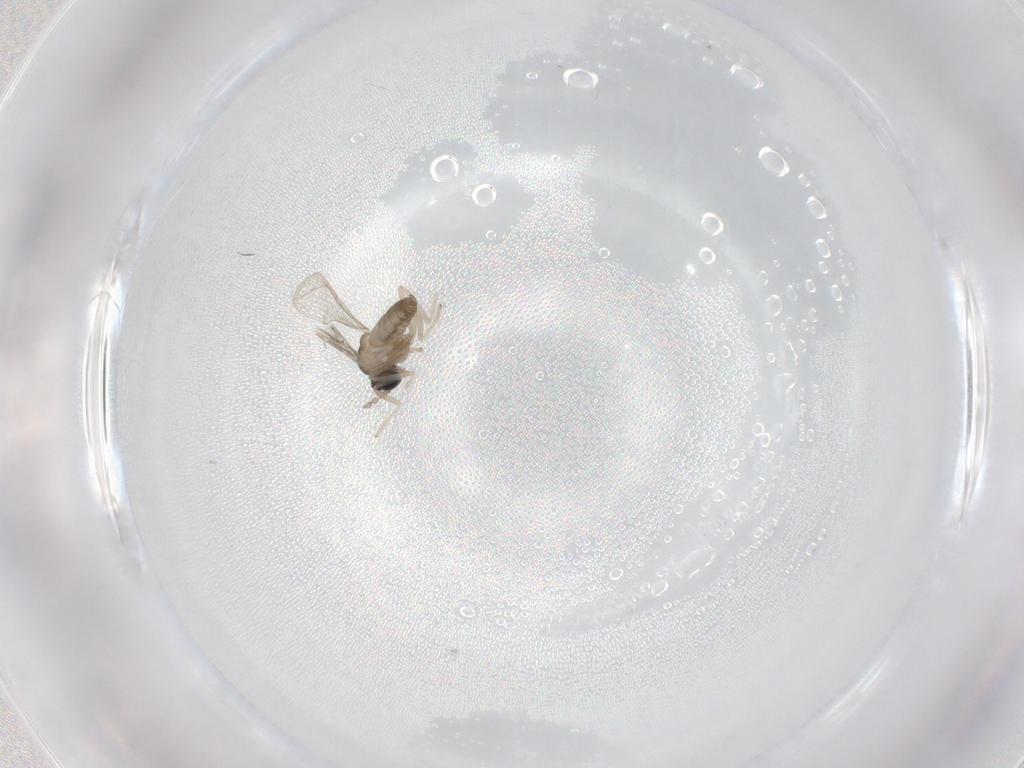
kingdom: Animalia
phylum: Arthropoda
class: Insecta
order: Diptera
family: Cecidomyiidae
